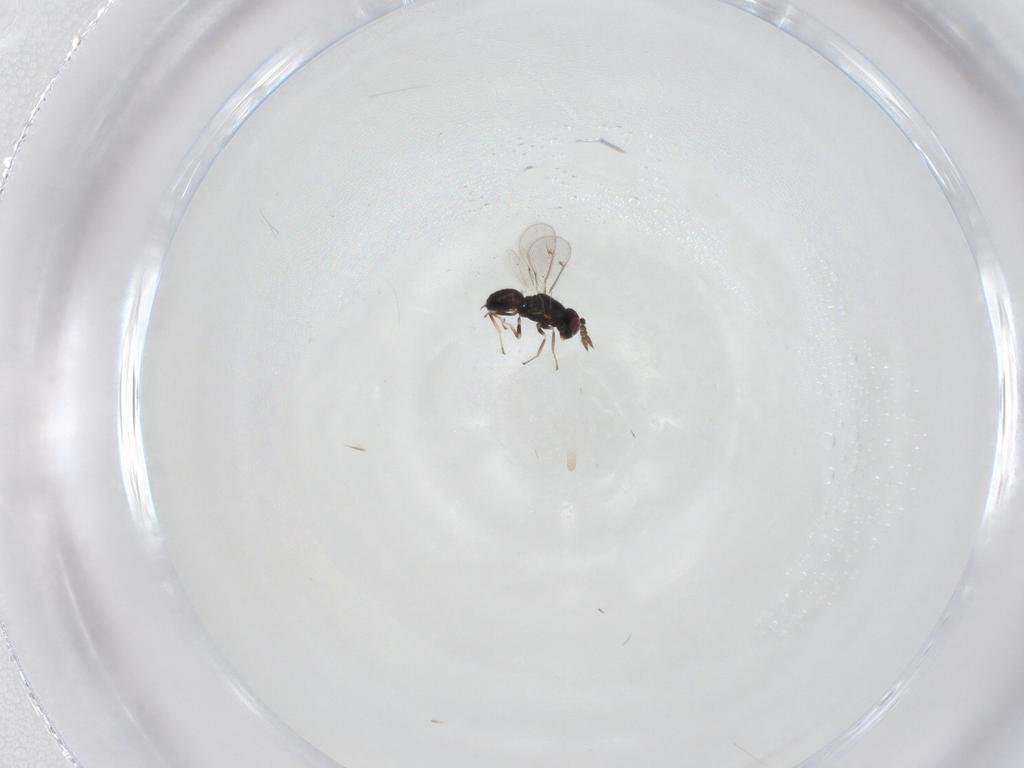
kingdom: Animalia
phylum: Arthropoda
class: Insecta
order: Hymenoptera
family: Eulophidae
